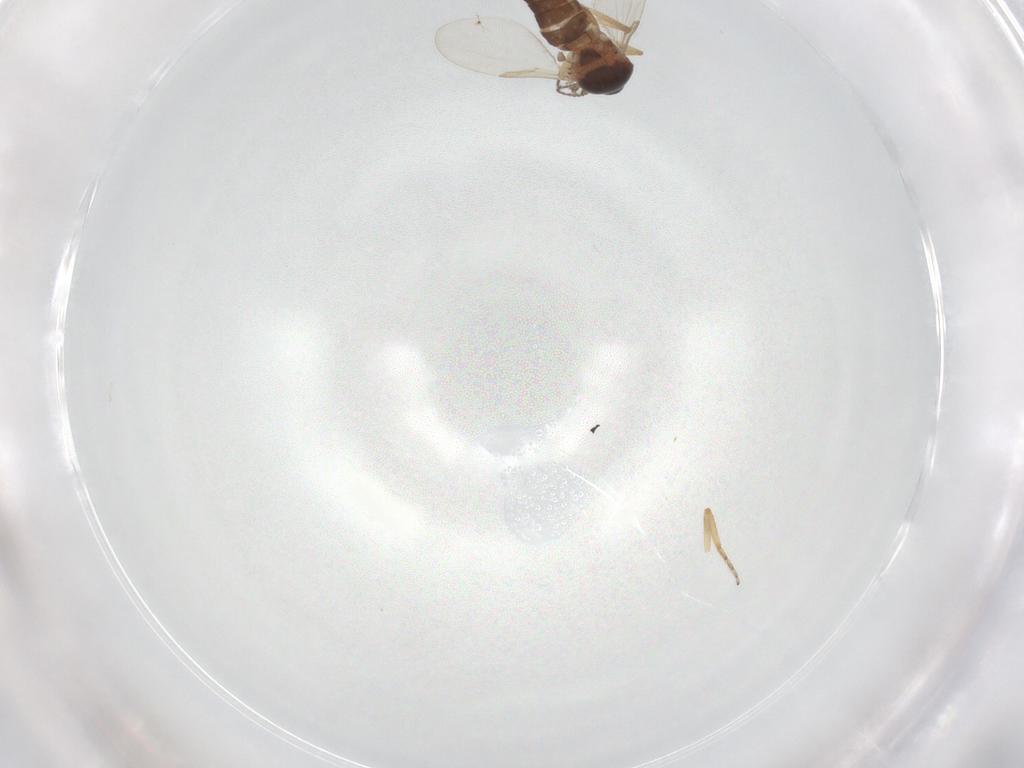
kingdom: Animalia
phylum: Arthropoda
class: Insecta
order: Diptera
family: Ceratopogonidae
